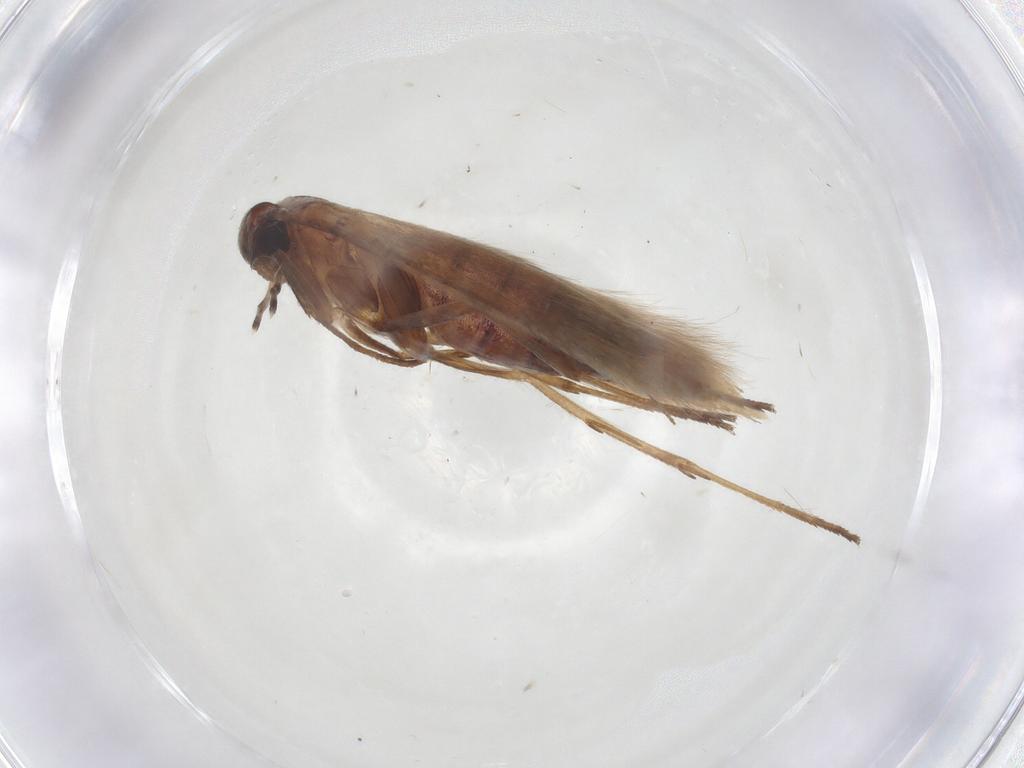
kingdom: Animalia
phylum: Arthropoda
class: Insecta
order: Lepidoptera
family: Scythrididae
